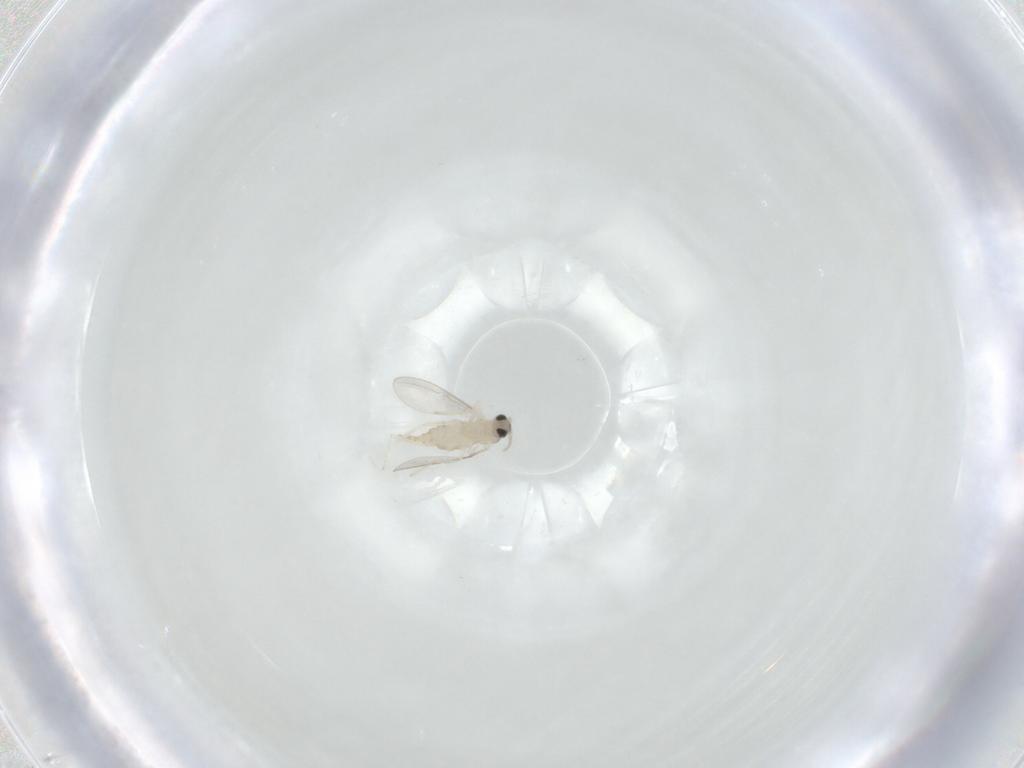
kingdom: Animalia
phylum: Arthropoda
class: Insecta
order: Diptera
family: Cecidomyiidae
